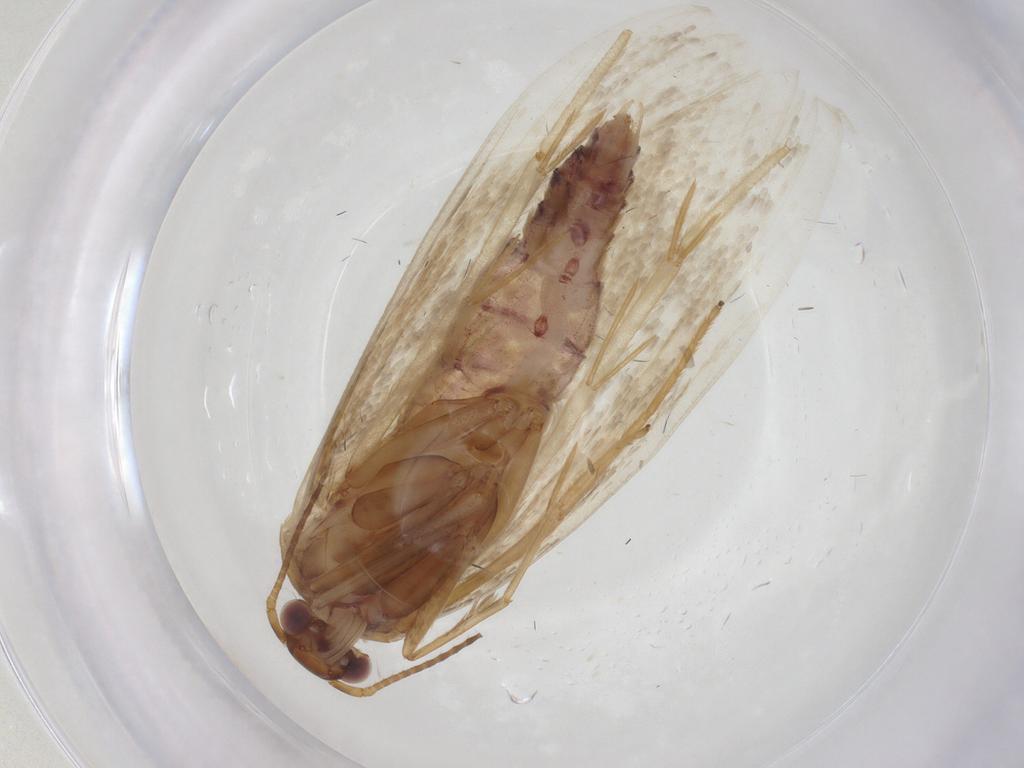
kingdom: Animalia
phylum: Arthropoda
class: Insecta
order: Lepidoptera
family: Oecophoridae
